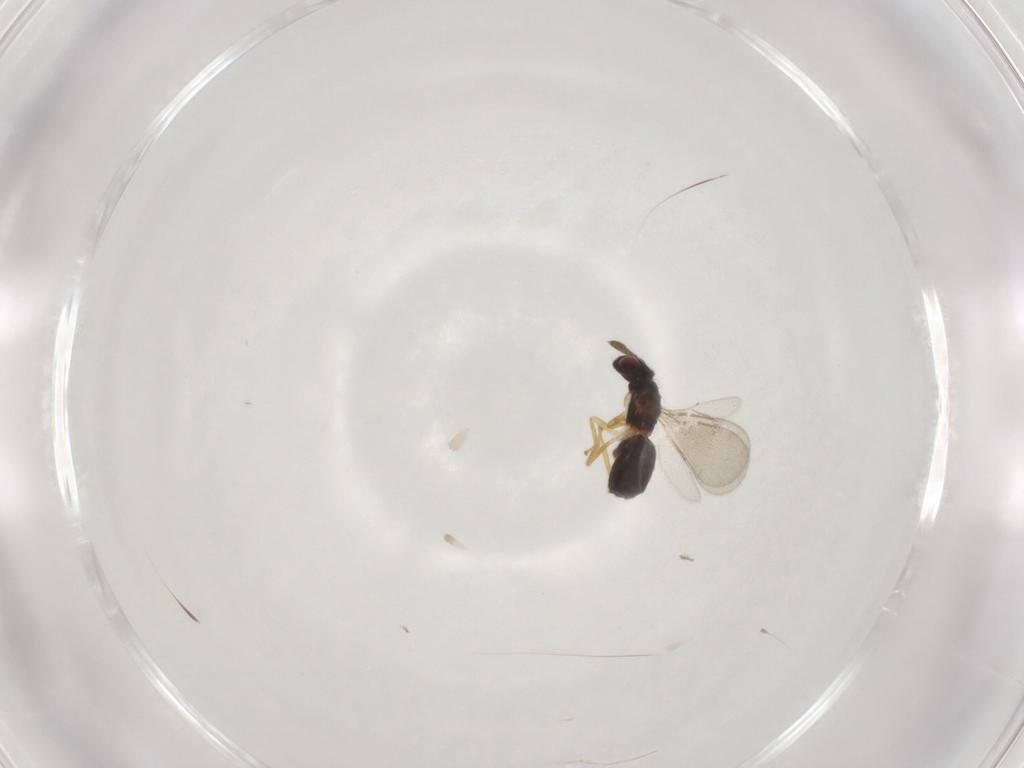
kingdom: Animalia
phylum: Arthropoda
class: Insecta
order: Hymenoptera
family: Eulophidae
